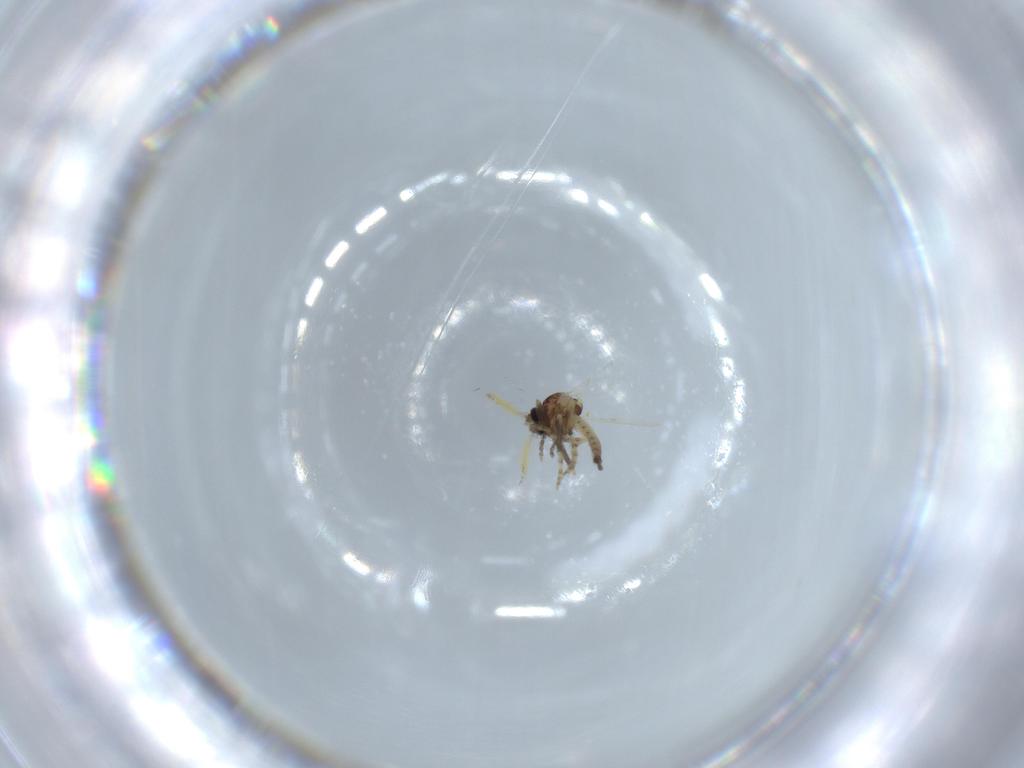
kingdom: Animalia
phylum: Arthropoda
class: Insecta
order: Diptera
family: Ceratopogonidae
